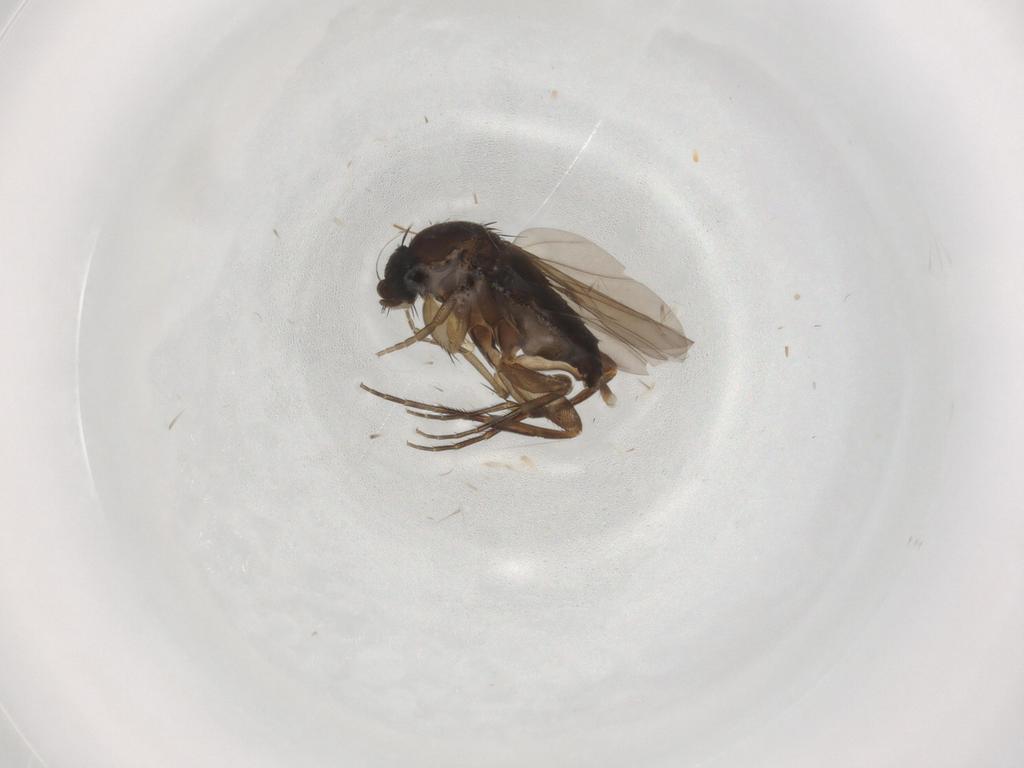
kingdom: Animalia
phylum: Arthropoda
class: Insecta
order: Diptera
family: Phoridae
